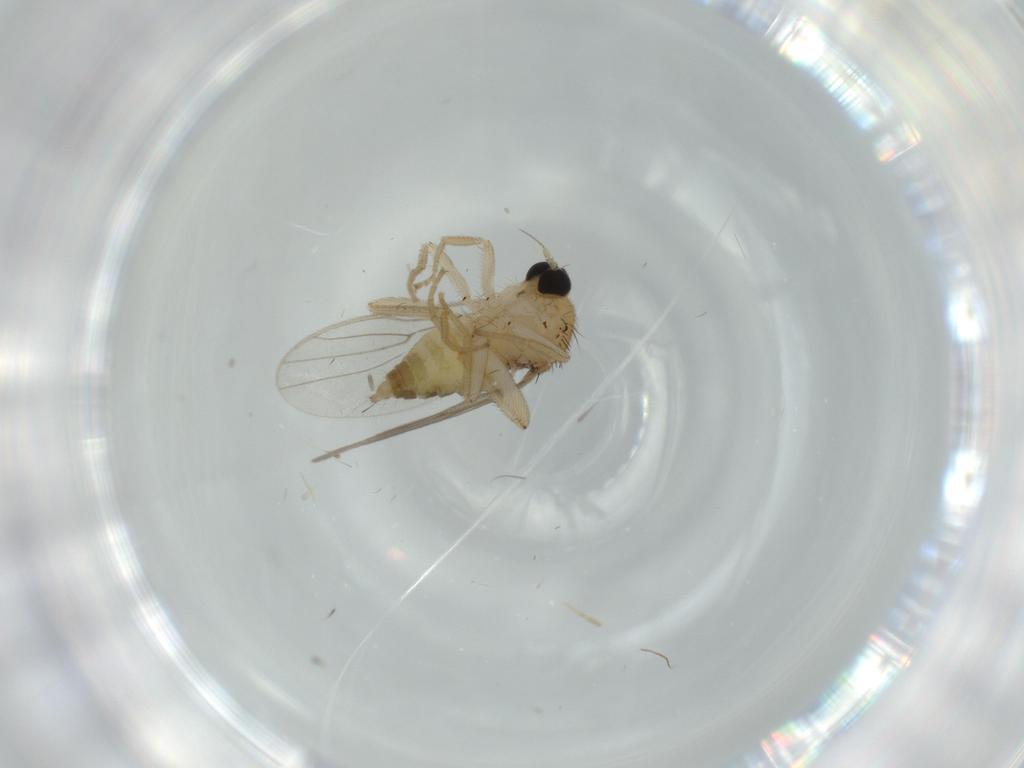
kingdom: Animalia
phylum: Arthropoda
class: Insecta
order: Diptera
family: Hybotidae
